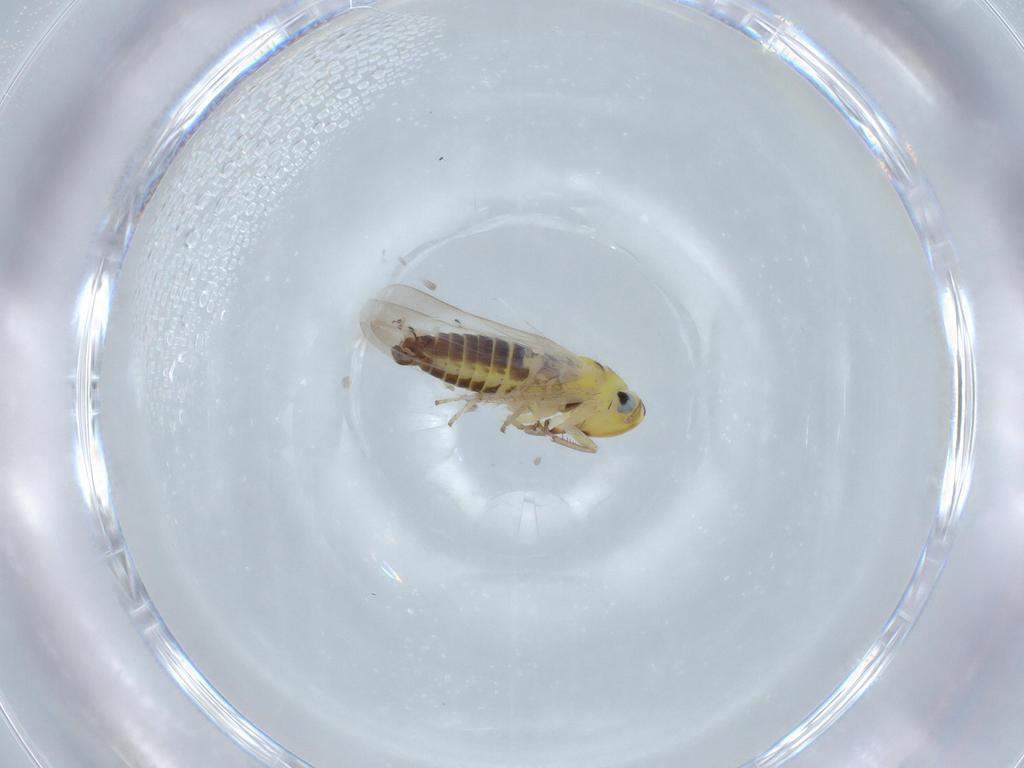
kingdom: Animalia
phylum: Arthropoda
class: Insecta
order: Hemiptera
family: Cicadellidae
